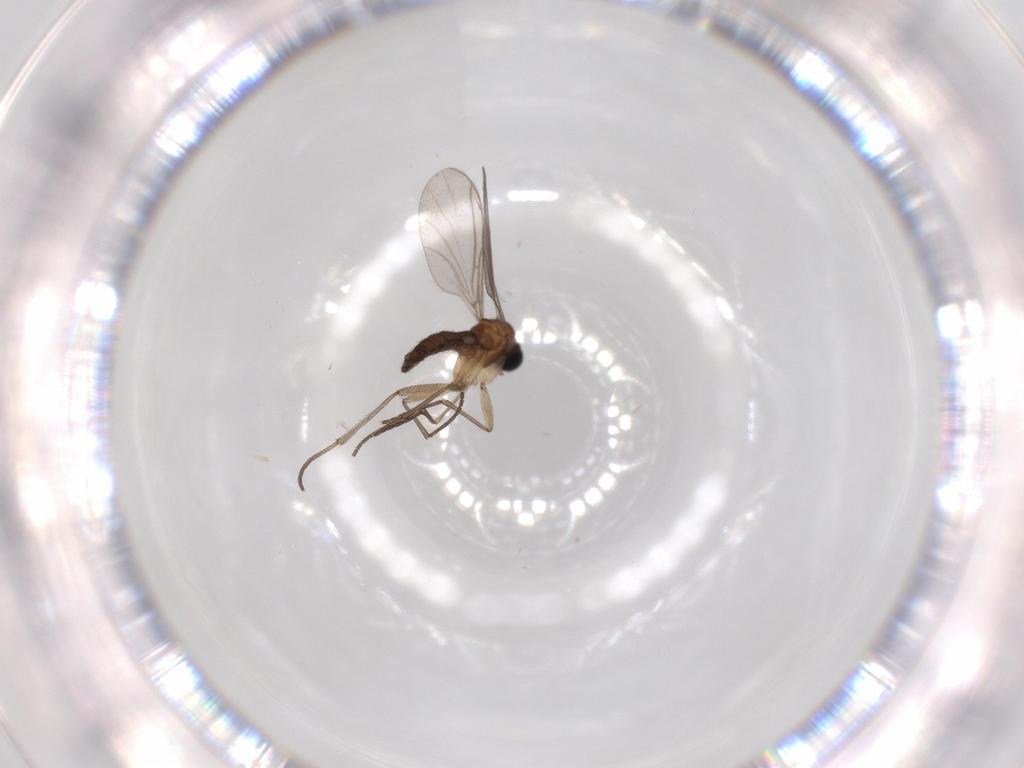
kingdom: Animalia
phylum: Arthropoda
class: Insecta
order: Diptera
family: Sciaridae
